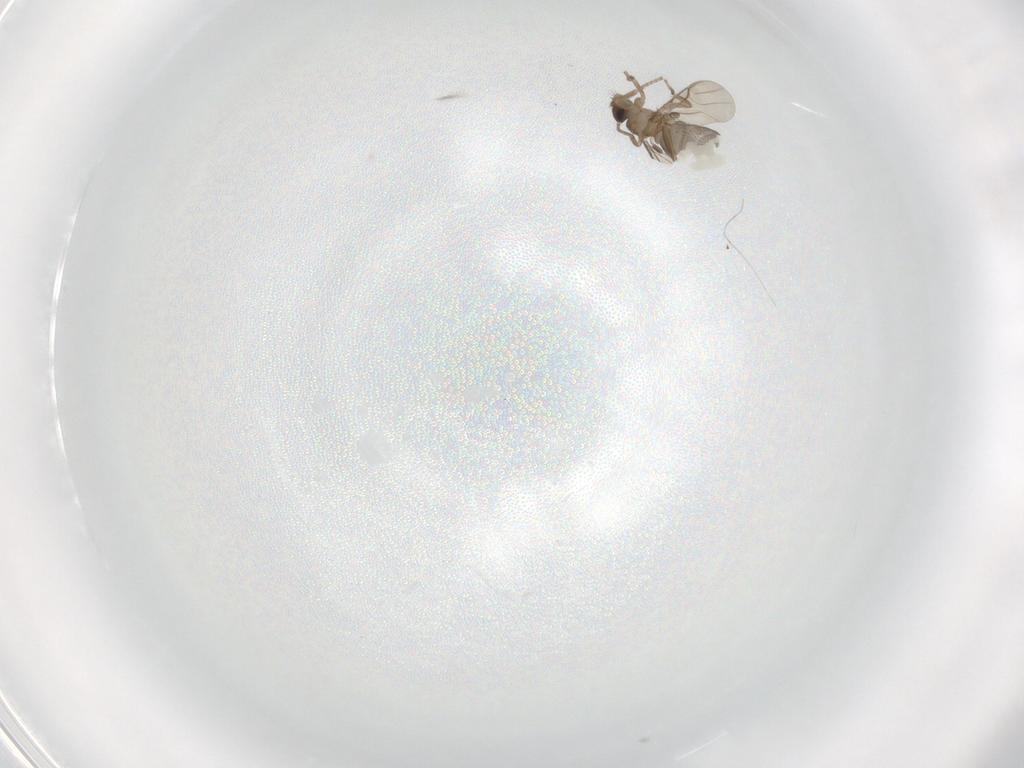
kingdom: Animalia
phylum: Arthropoda
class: Insecta
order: Diptera
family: Phoridae
